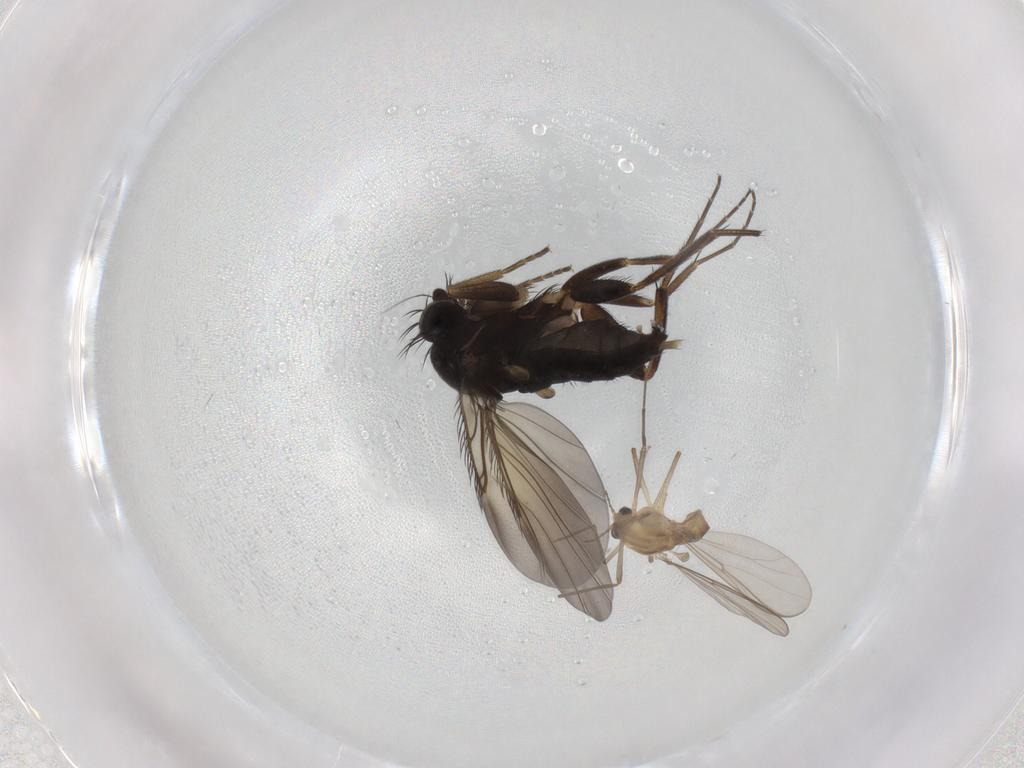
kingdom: Animalia
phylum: Arthropoda
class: Insecta
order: Diptera
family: Phoridae
